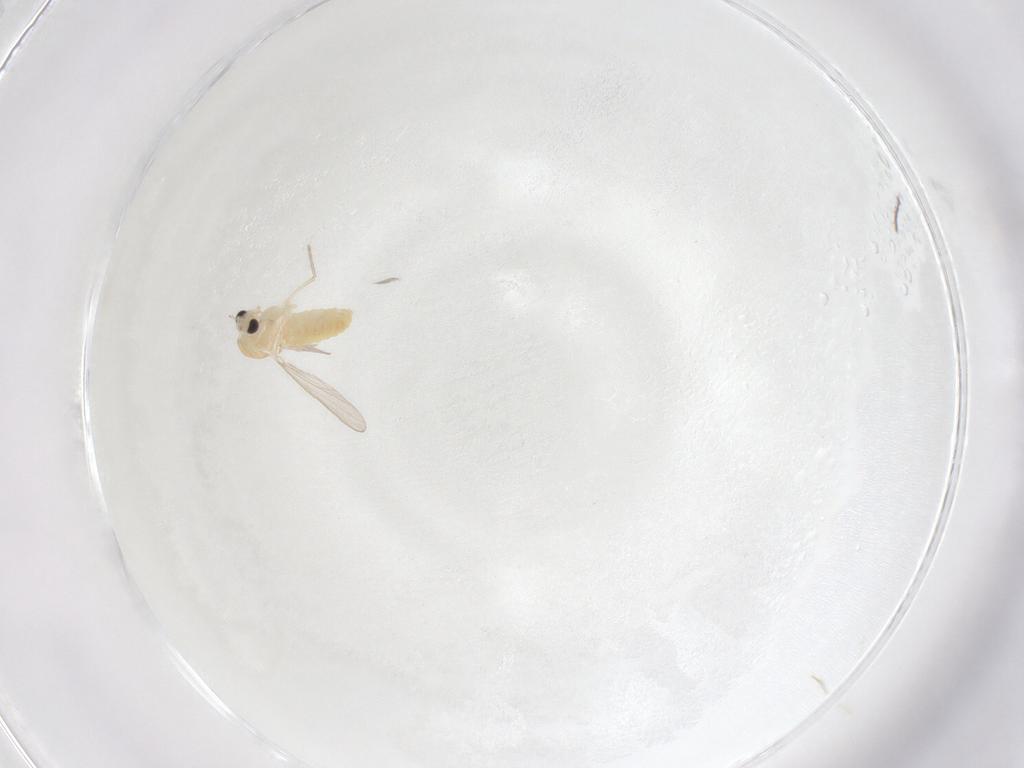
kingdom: Animalia
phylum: Arthropoda
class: Insecta
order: Diptera
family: Chironomidae
